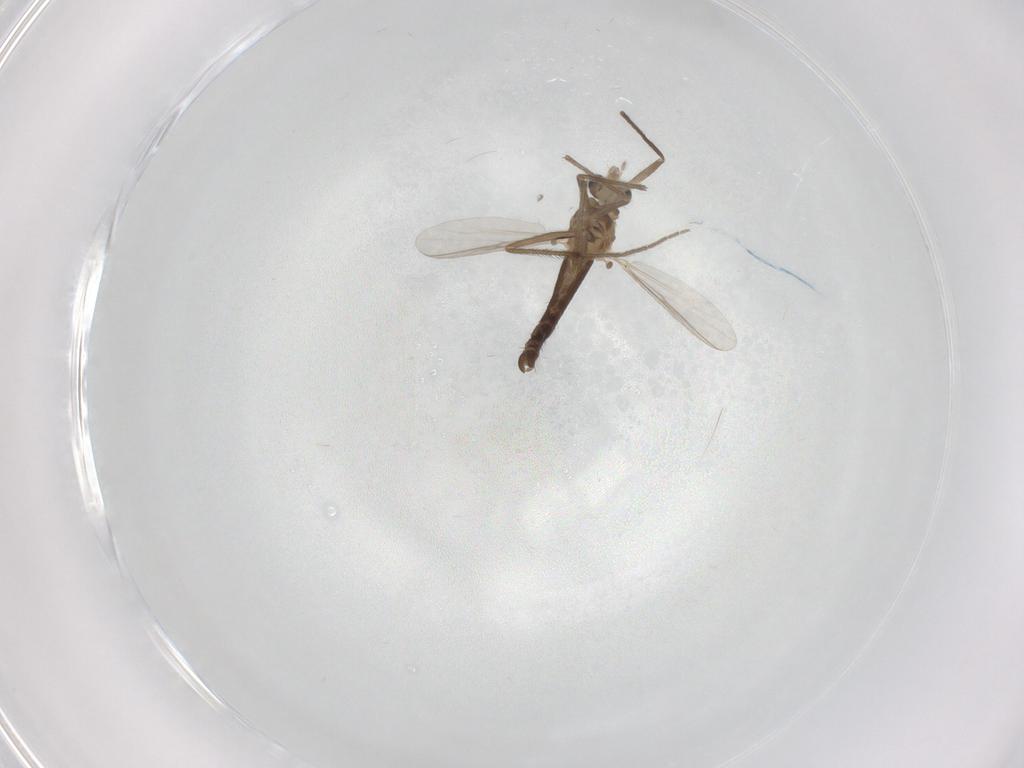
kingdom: Animalia
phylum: Arthropoda
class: Insecta
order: Diptera
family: Chironomidae
